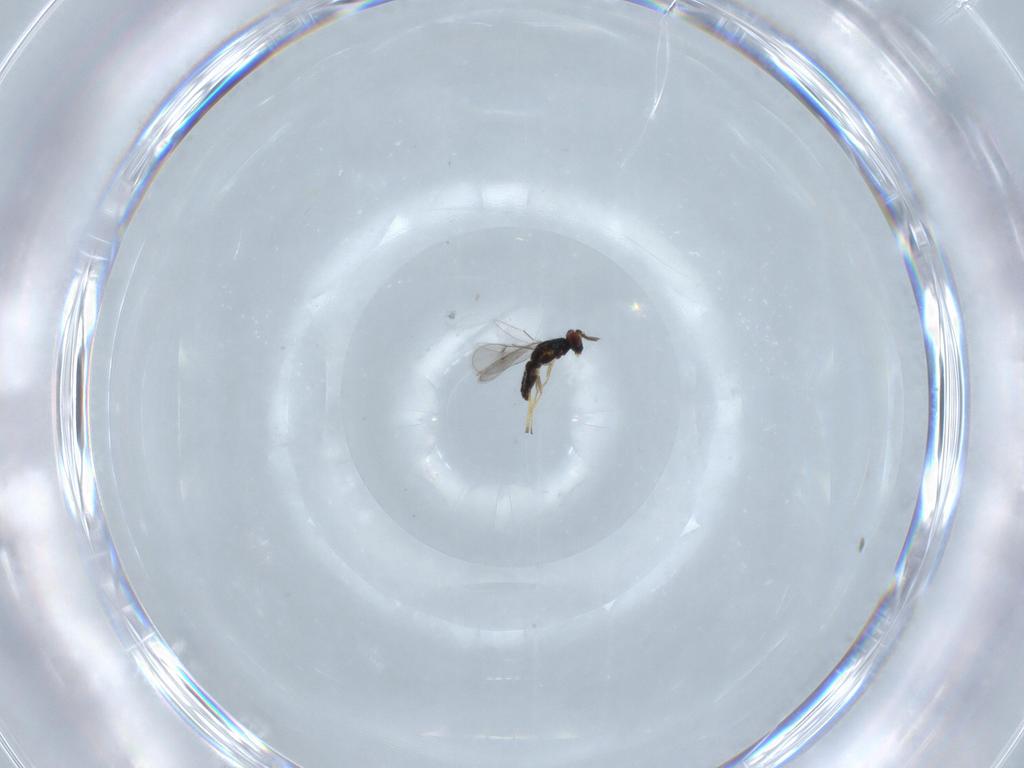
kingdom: Animalia
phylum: Arthropoda
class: Insecta
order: Hymenoptera
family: Eulophidae
